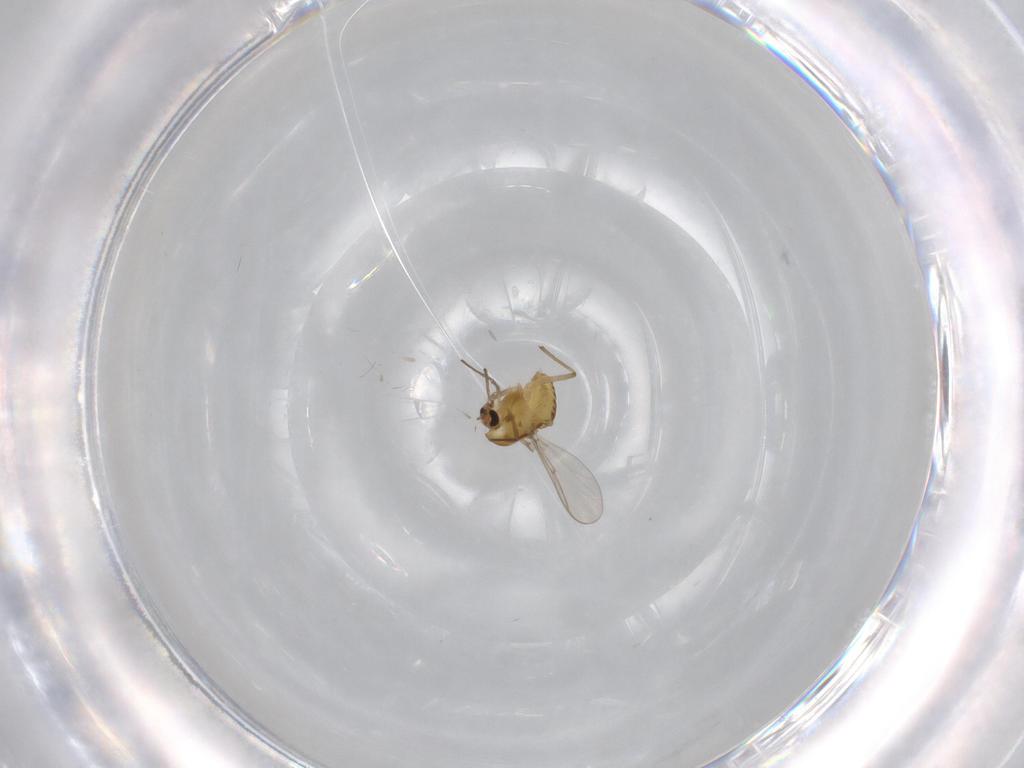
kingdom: Animalia
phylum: Arthropoda
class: Insecta
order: Diptera
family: Chironomidae
